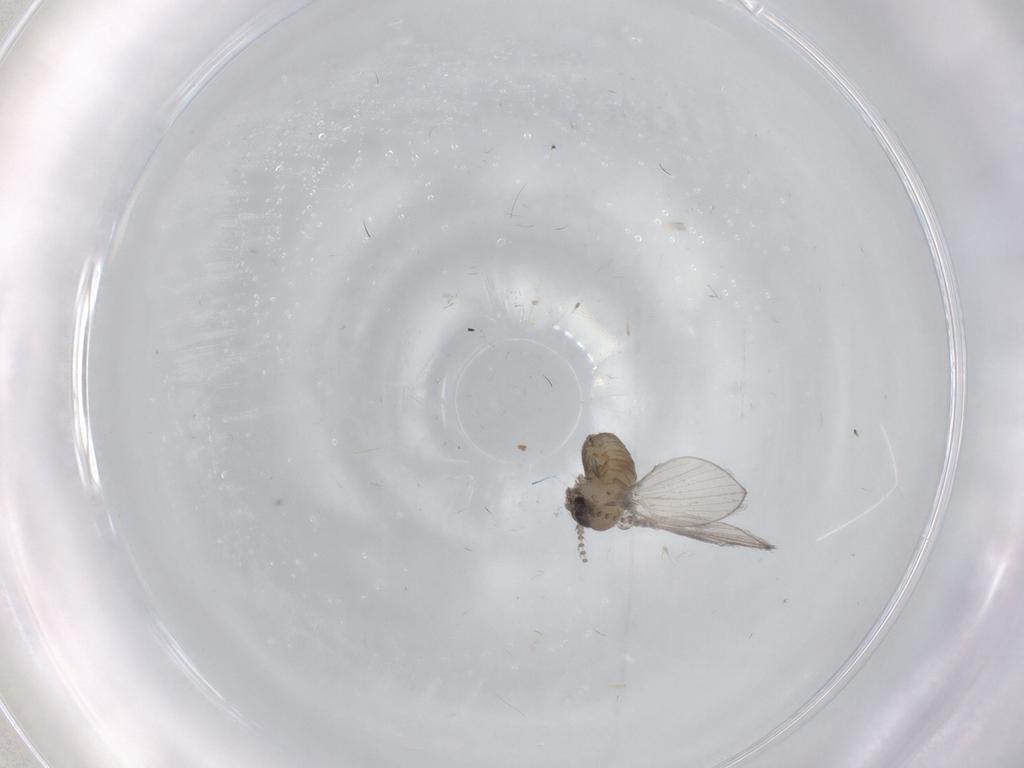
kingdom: Animalia
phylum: Arthropoda
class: Insecta
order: Diptera
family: Psychodidae
